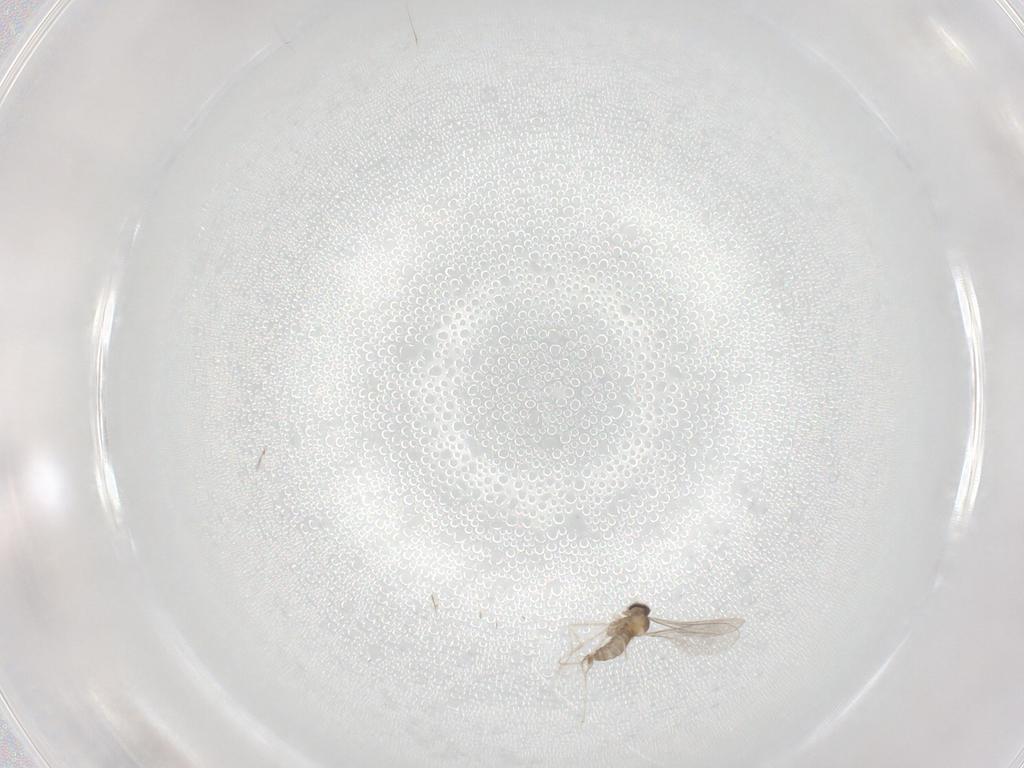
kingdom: Animalia
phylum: Arthropoda
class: Insecta
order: Diptera
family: Cecidomyiidae
